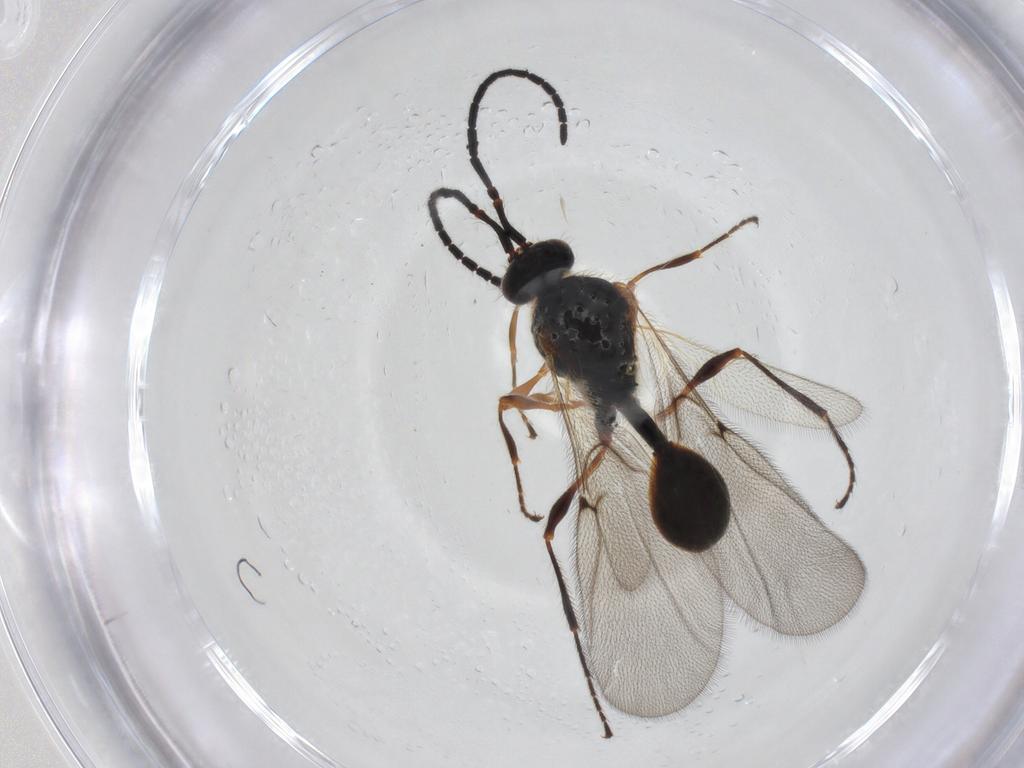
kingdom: Animalia
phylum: Arthropoda
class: Insecta
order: Hymenoptera
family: Diapriidae
